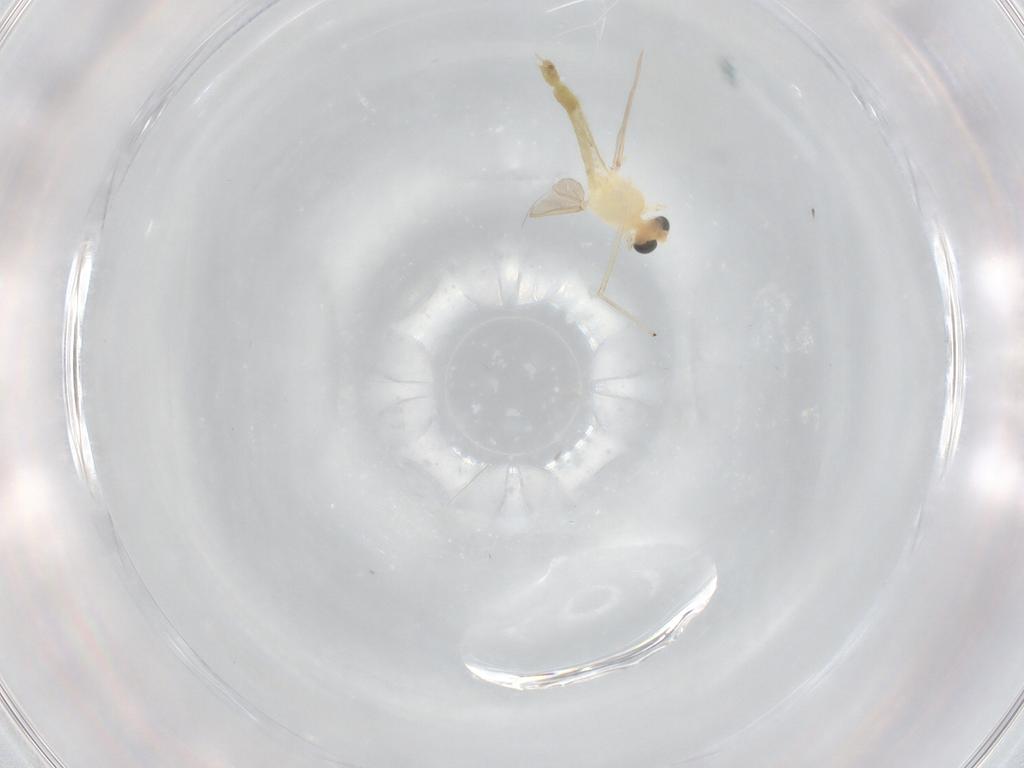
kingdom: Animalia
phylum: Arthropoda
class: Insecta
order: Diptera
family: Chironomidae
